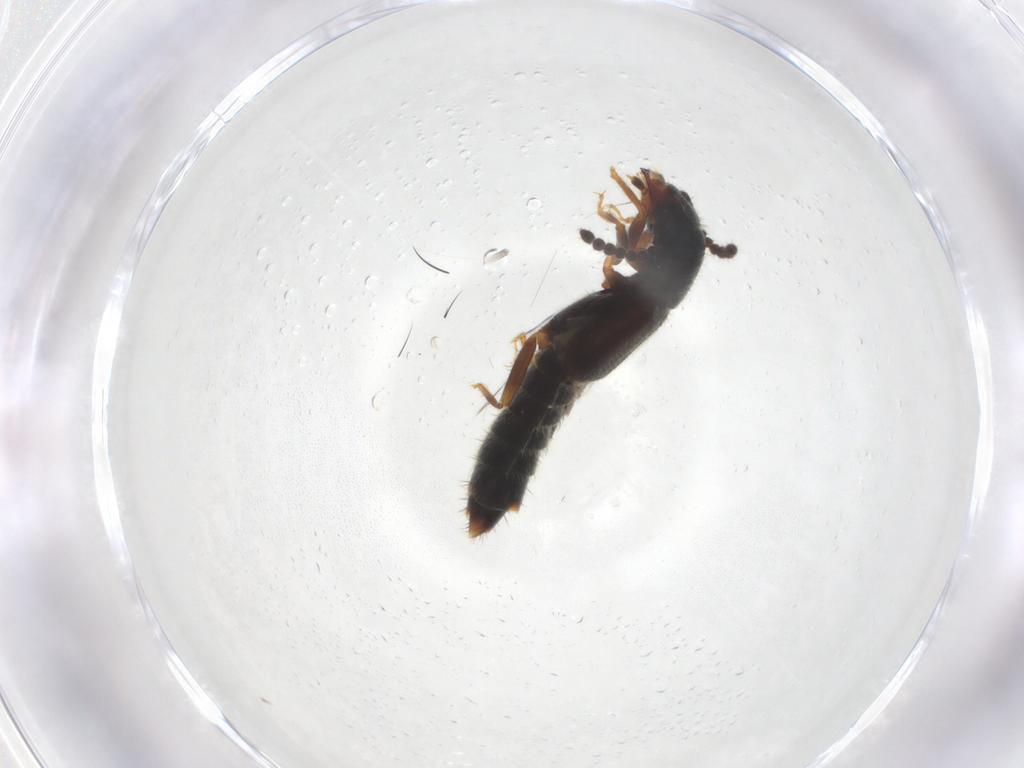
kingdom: Animalia
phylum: Arthropoda
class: Insecta
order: Coleoptera
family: Staphylinidae
